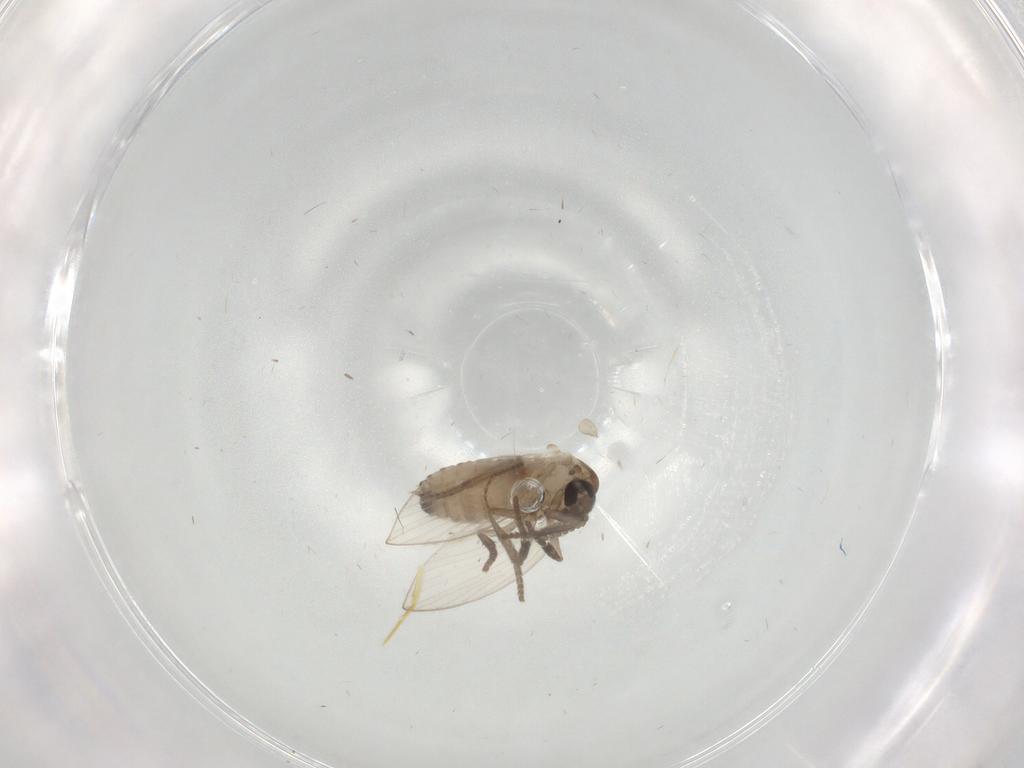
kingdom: Animalia
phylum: Arthropoda
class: Insecta
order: Diptera
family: Psychodidae
